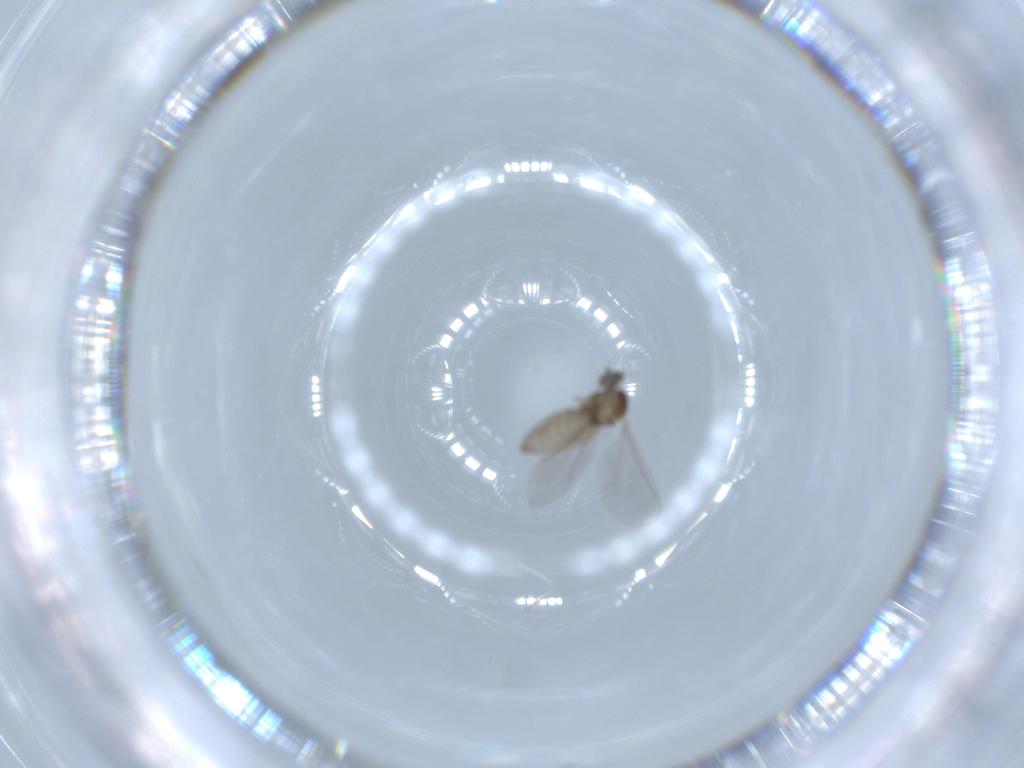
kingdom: Animalia
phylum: Arthropoda
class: Insecta
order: Diptera
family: Cecidomyiidae
